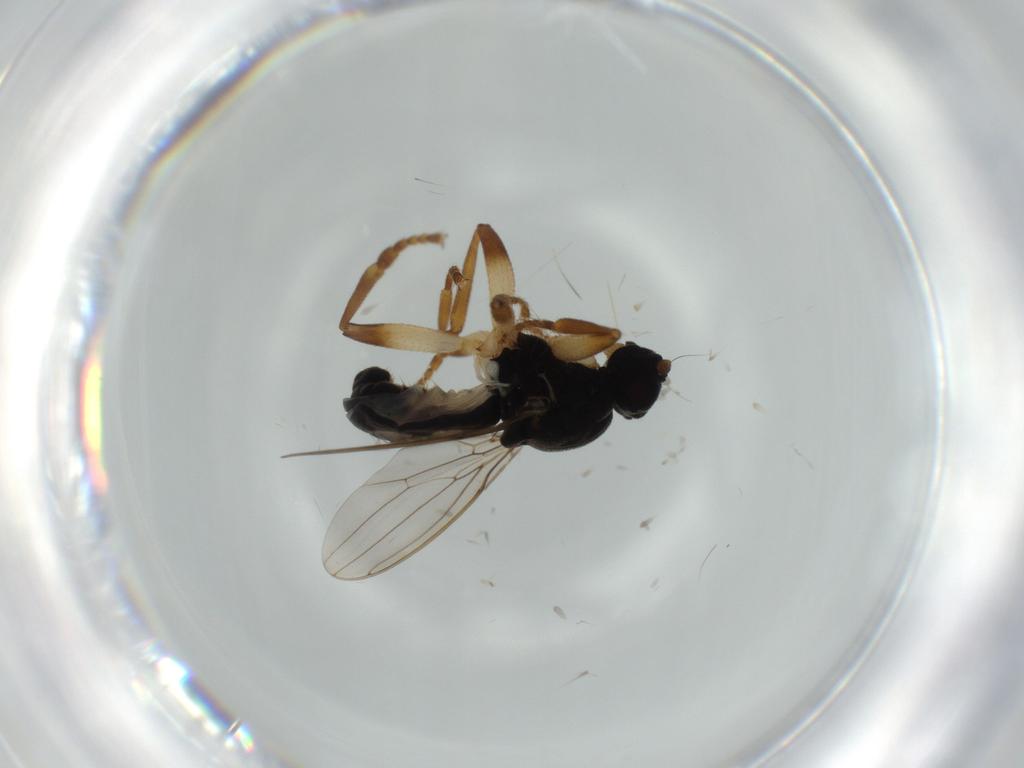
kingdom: Animalia
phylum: Arthropoda
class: Insecta
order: Diptera
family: Sphaeroceridae
